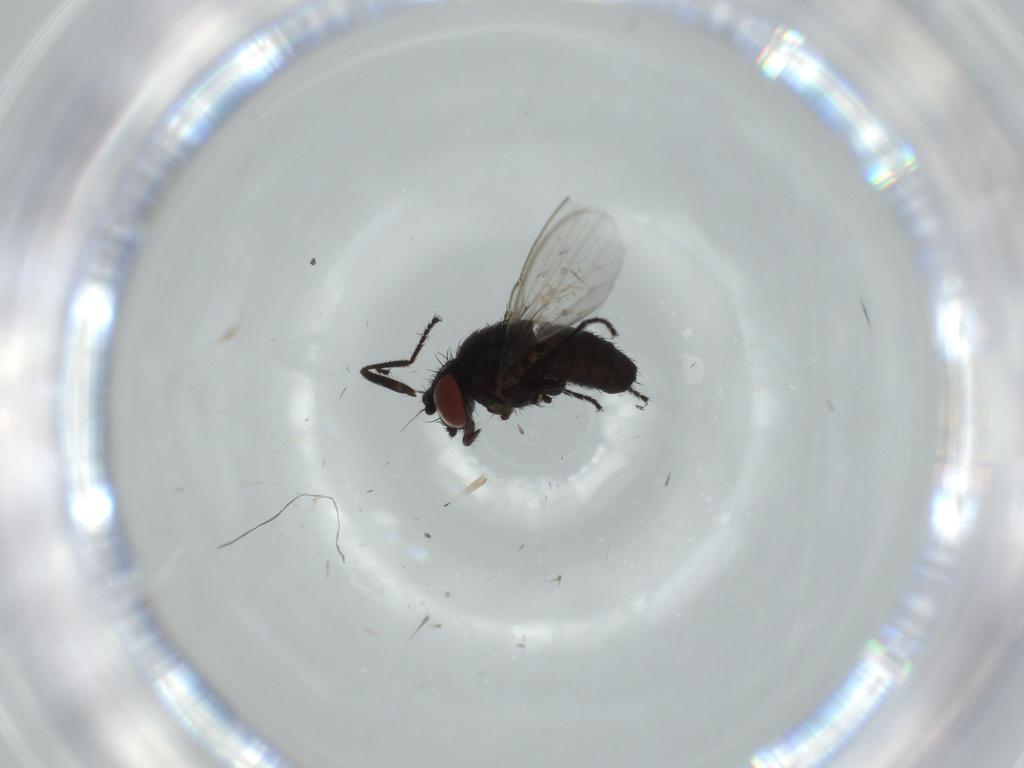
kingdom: Animalia
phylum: Arthropoda
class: Insecta
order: Diptera
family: Milichiidae
